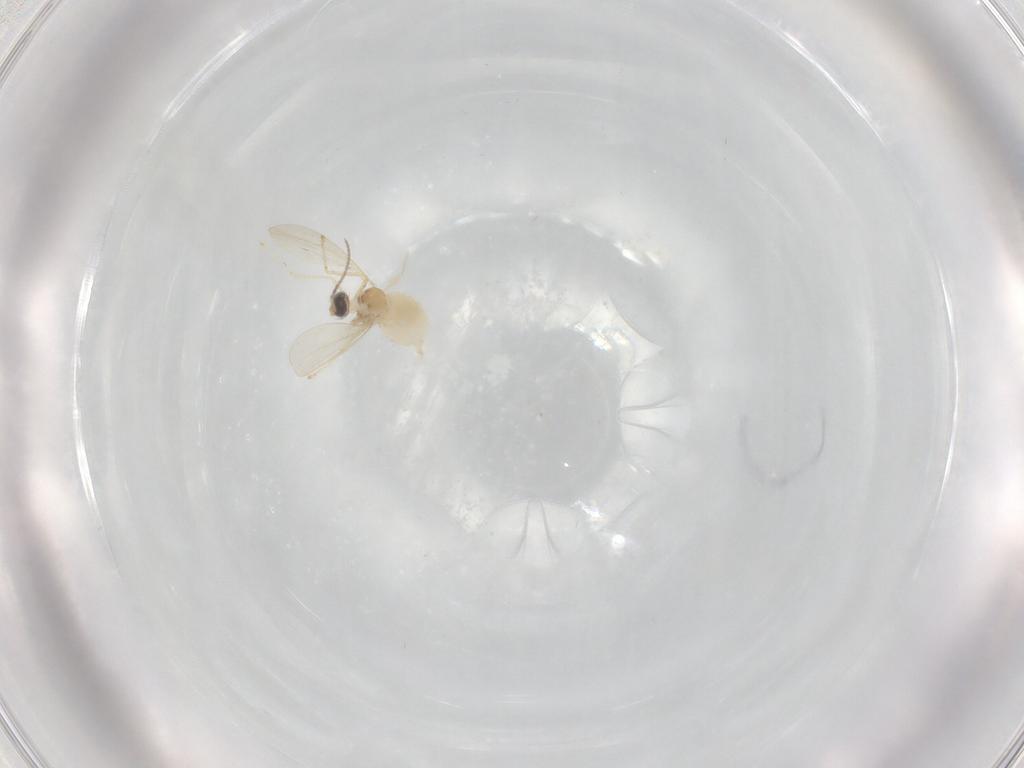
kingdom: Animalia
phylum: Arthropoda
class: Insecta
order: Diptera
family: Cecidomyiidae
